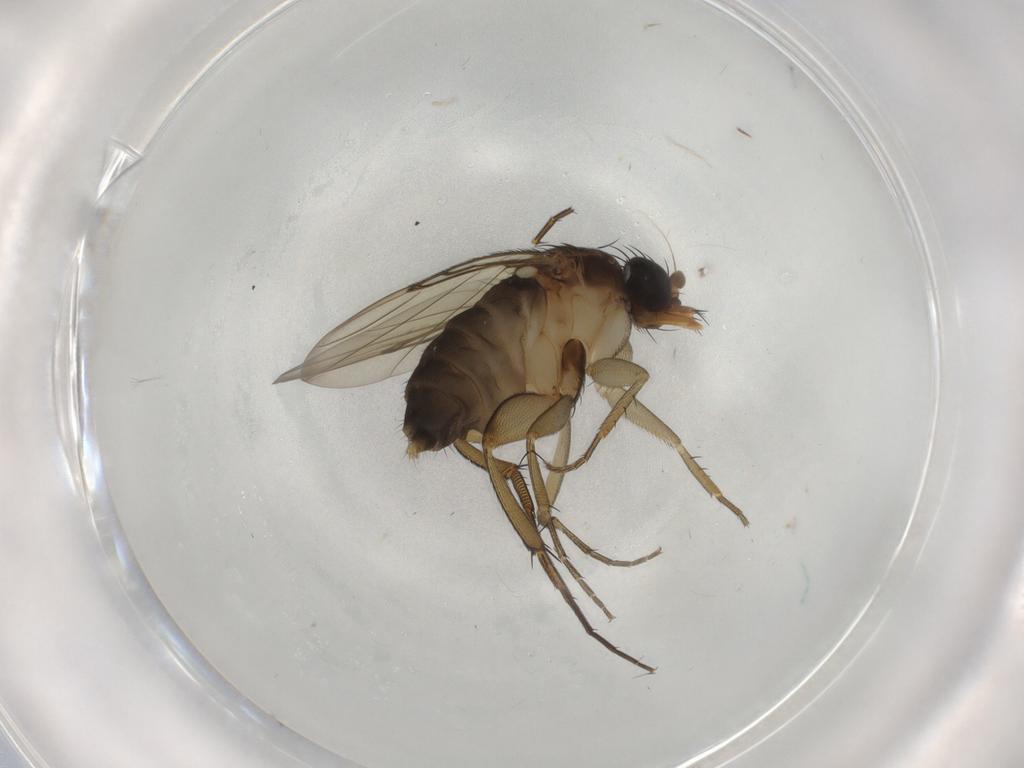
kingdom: Animalia
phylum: Arthropoda
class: Insecta
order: Diptera
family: Phoridae
